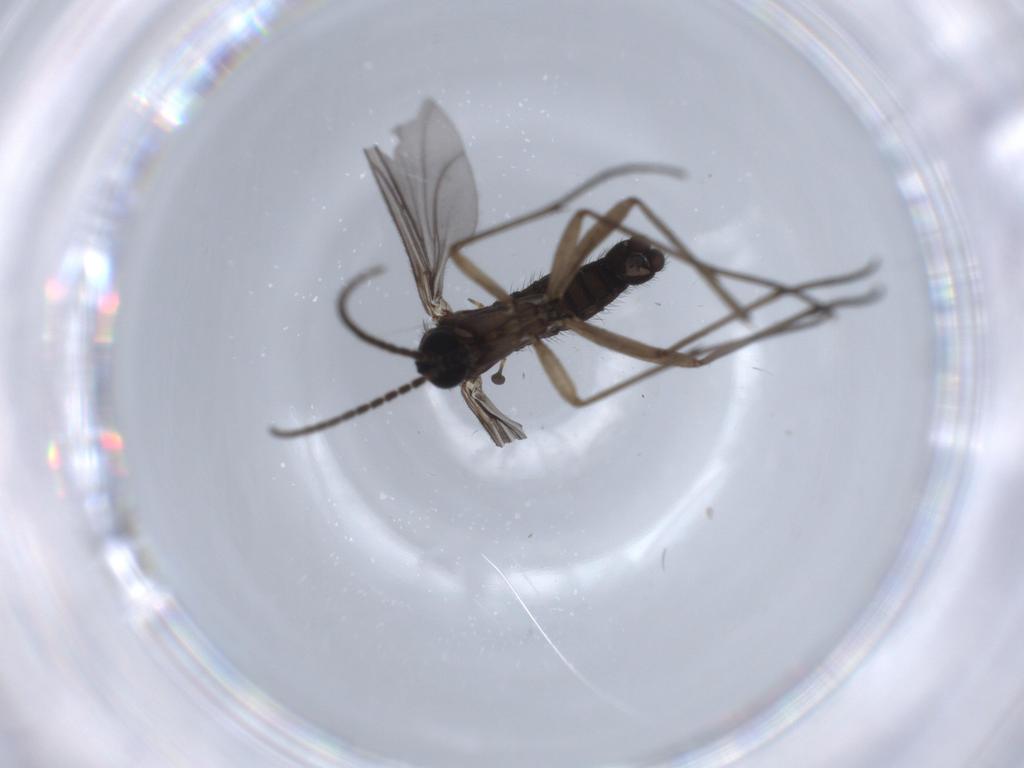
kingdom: Animalia
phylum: Arthropoda
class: Insecta
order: Diptera
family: Sciaridae
